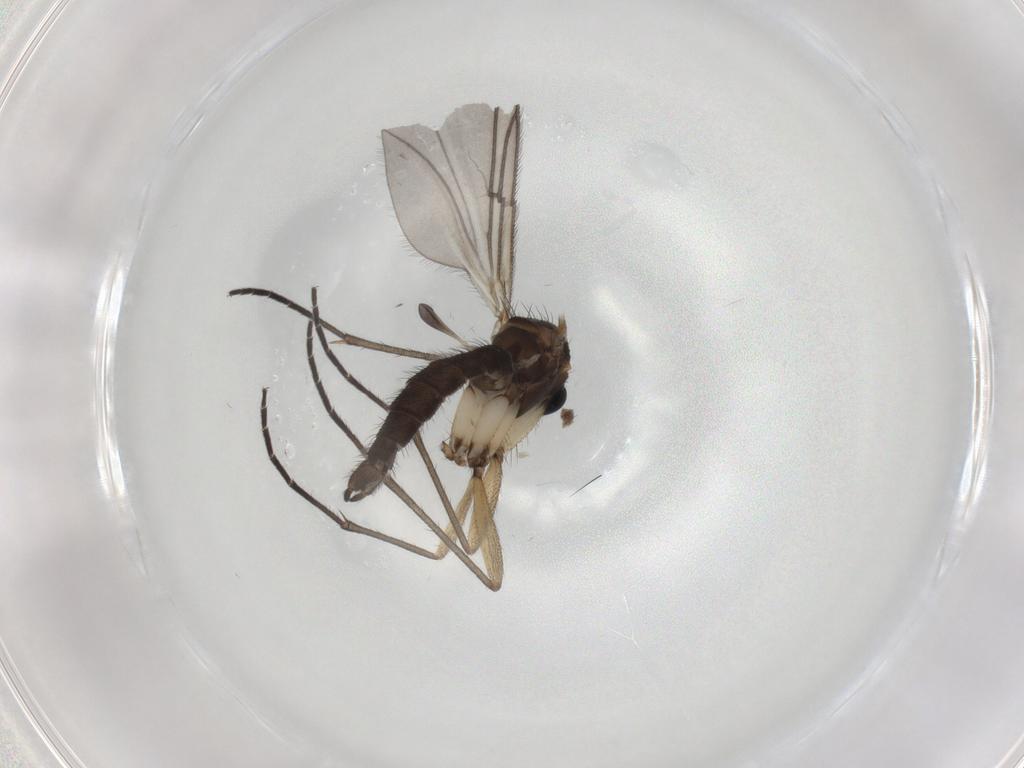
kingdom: Animalia
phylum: Arthropoda
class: Insecta
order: Diptera
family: Sciaridae
